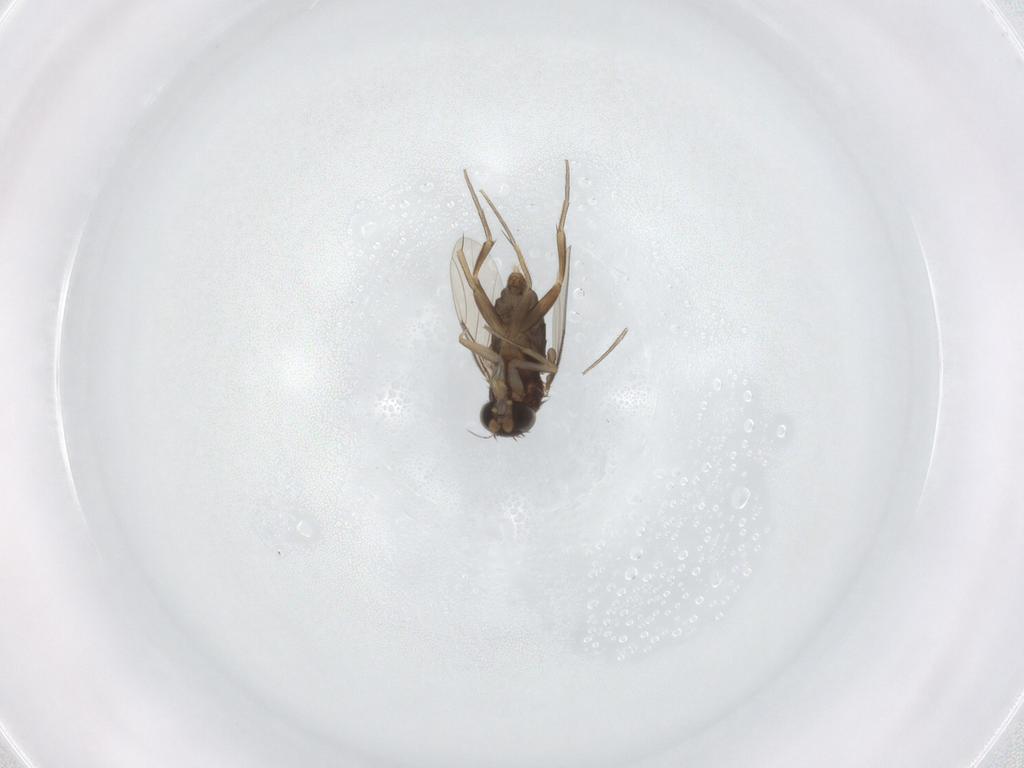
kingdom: Animalia
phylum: Arthropoda
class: Insecta
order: Diptera
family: Phoridae
